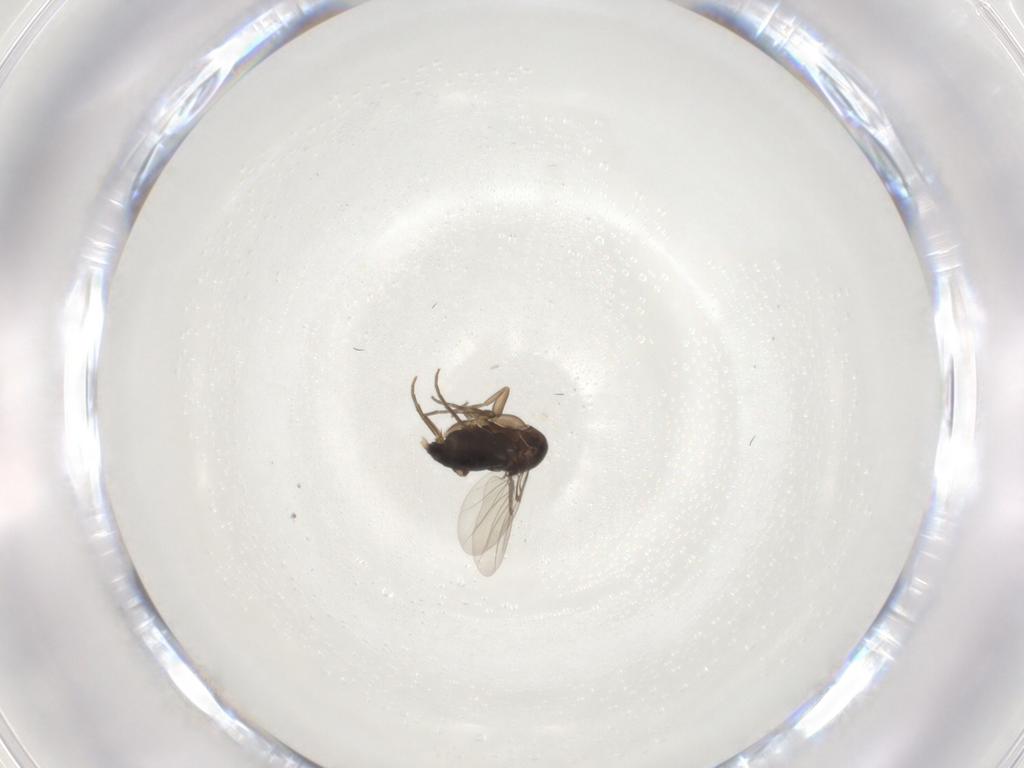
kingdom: Animalia
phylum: Arthropoda
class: Insecta
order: Diptera
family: Phoridae
